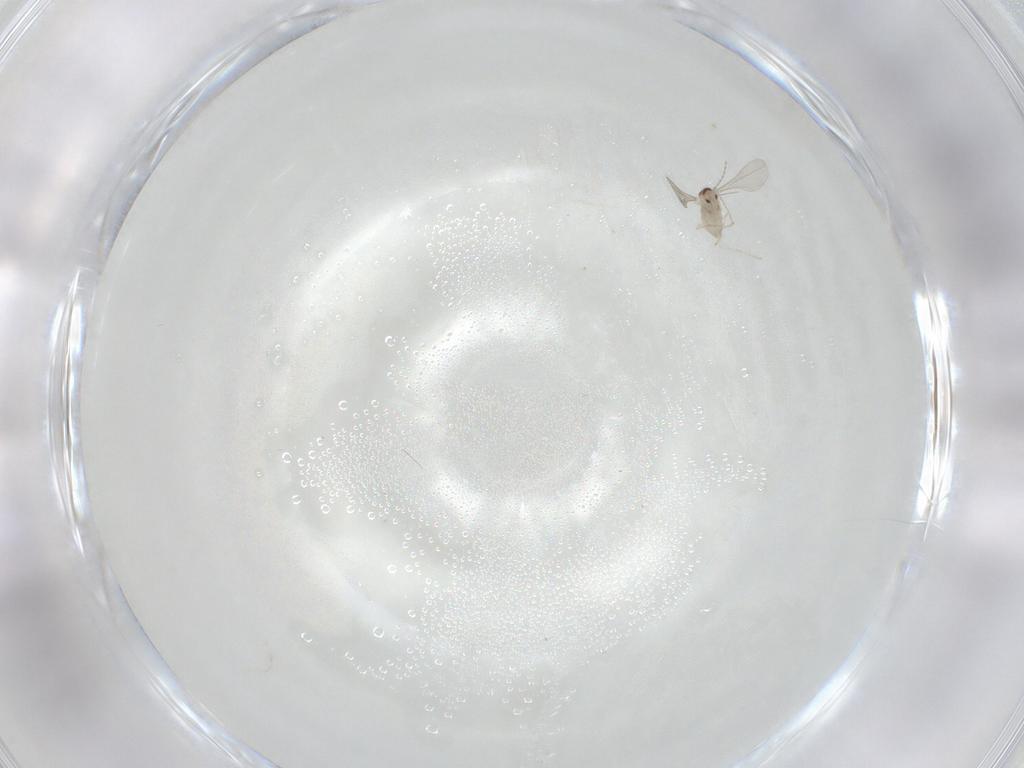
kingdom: Animalia
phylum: Arthropoda
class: Insecta
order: Diptera
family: Cecidomyiidae
